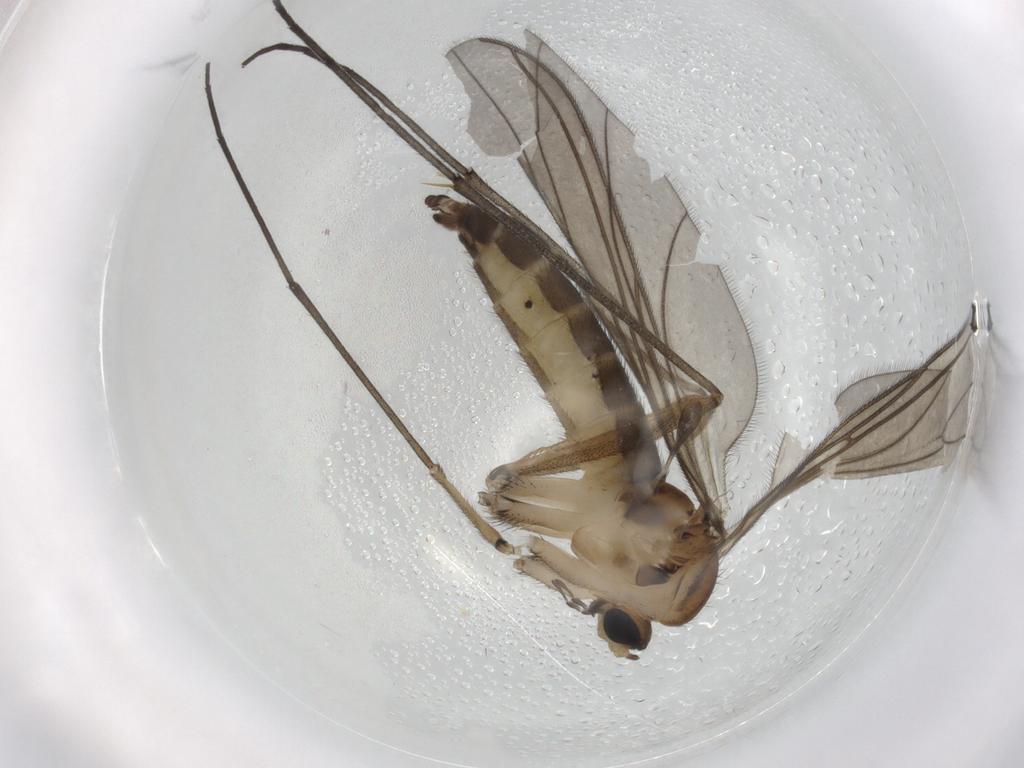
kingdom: Animalia
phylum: Arthropoda
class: Insecta
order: Diptera
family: Sciaridae
